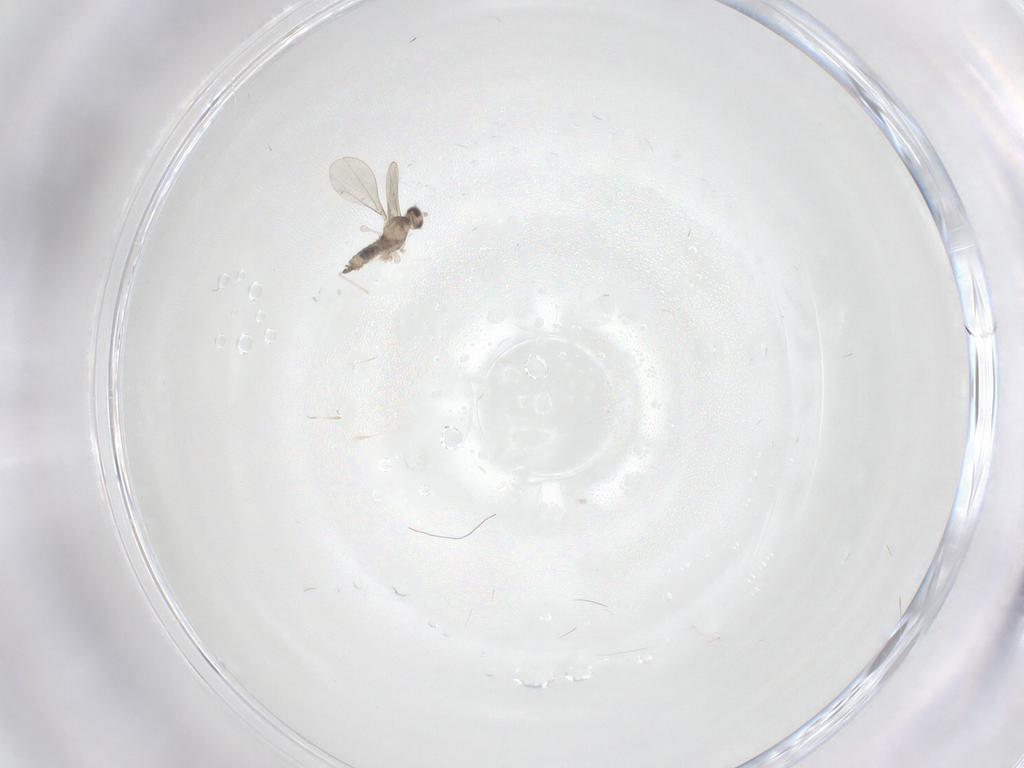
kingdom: Animalia
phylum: Arthropoda
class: Insecta
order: Diptera
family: Cecidomyiidae
